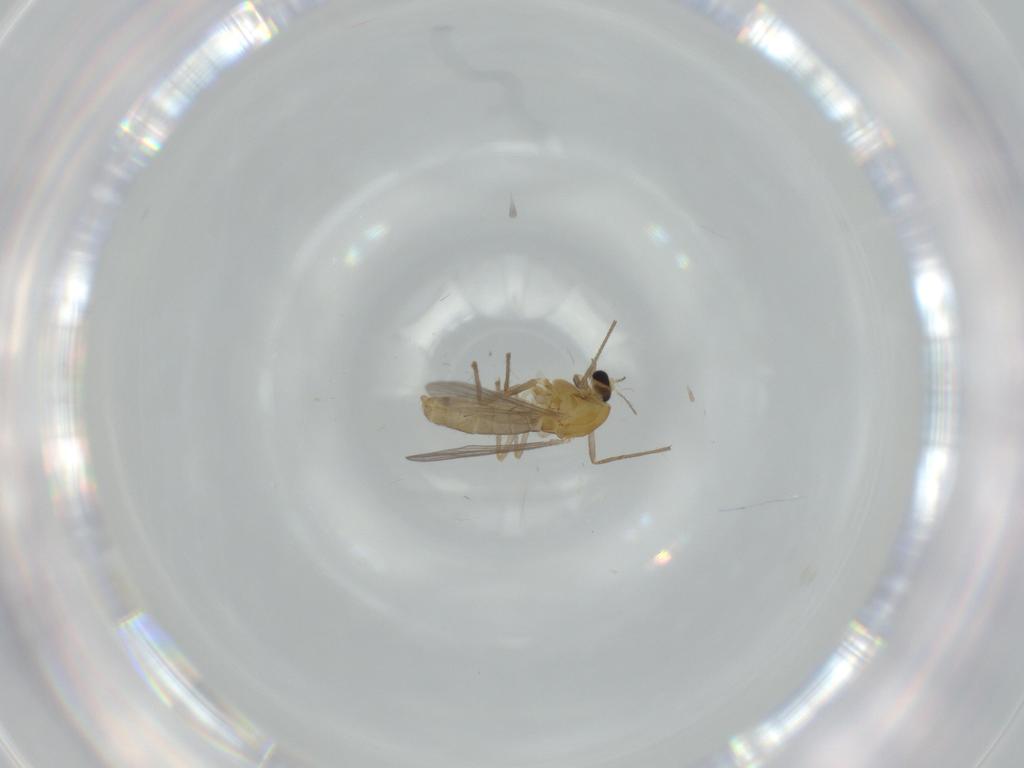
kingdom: Animalia
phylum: Arthropoda
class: Insecta
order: Diptera
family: Chironomidae
